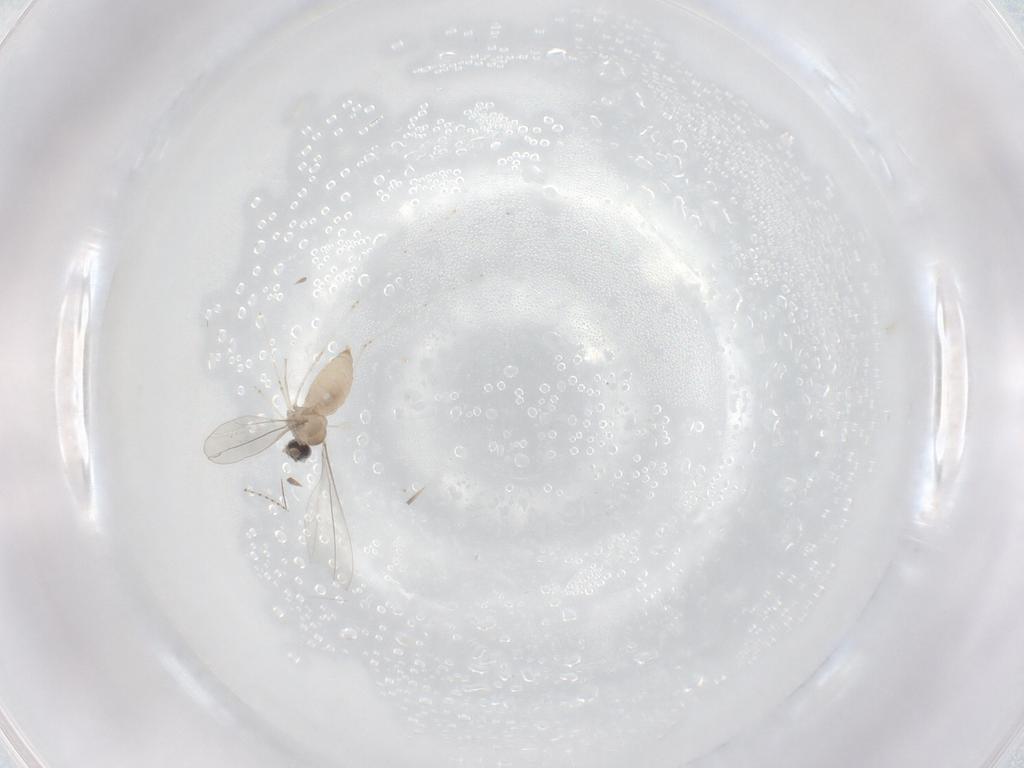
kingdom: Animalia
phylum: Arthropoda
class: Insecta
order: Diptera
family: Cecidomyiidae
